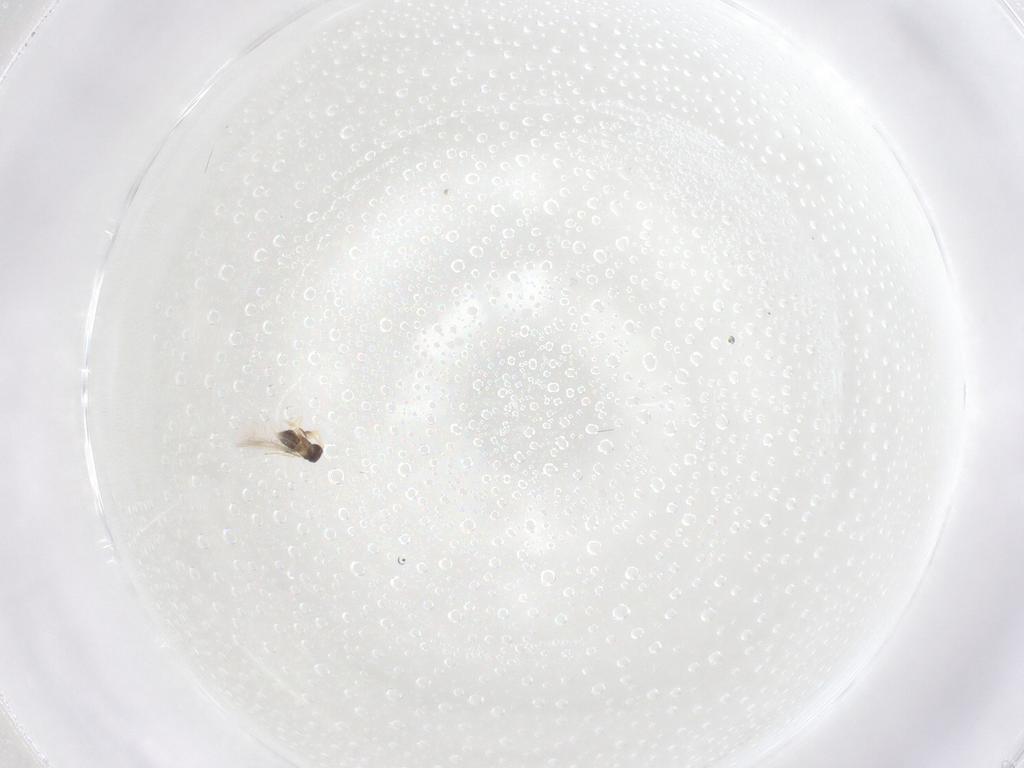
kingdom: Animalia
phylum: Arthropoda
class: Insecta
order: Hymenoptera
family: Mymaridae
